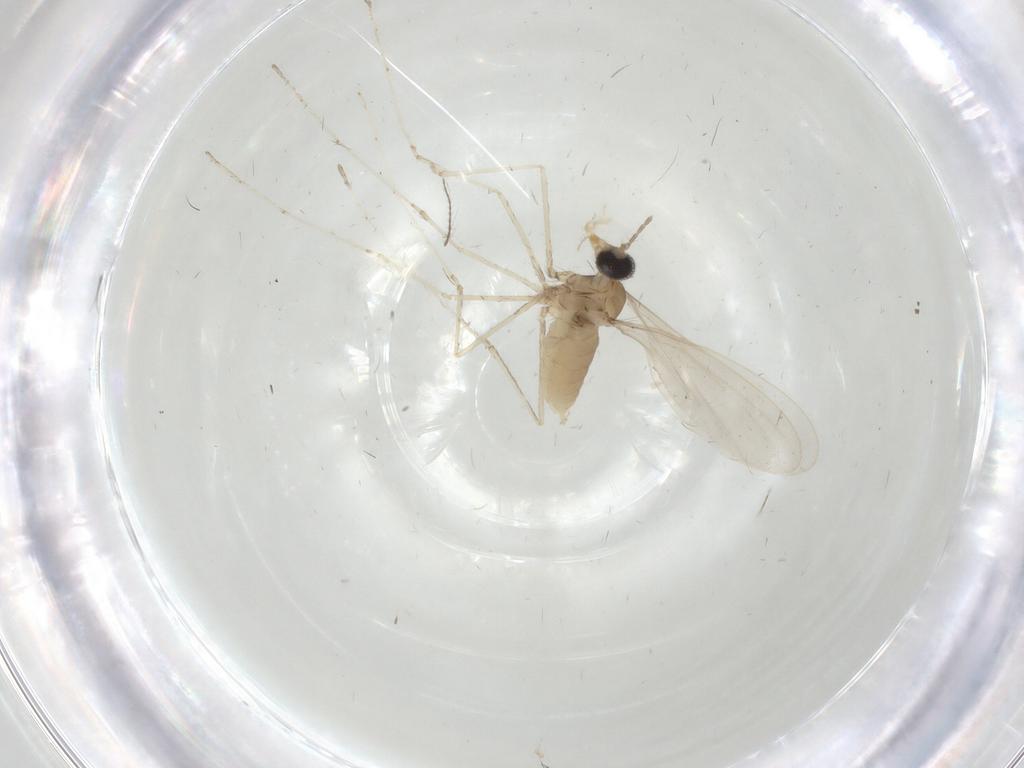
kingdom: Animalia
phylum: Arthropoda
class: Insecta
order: Diptera
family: Cecidomyiidae
